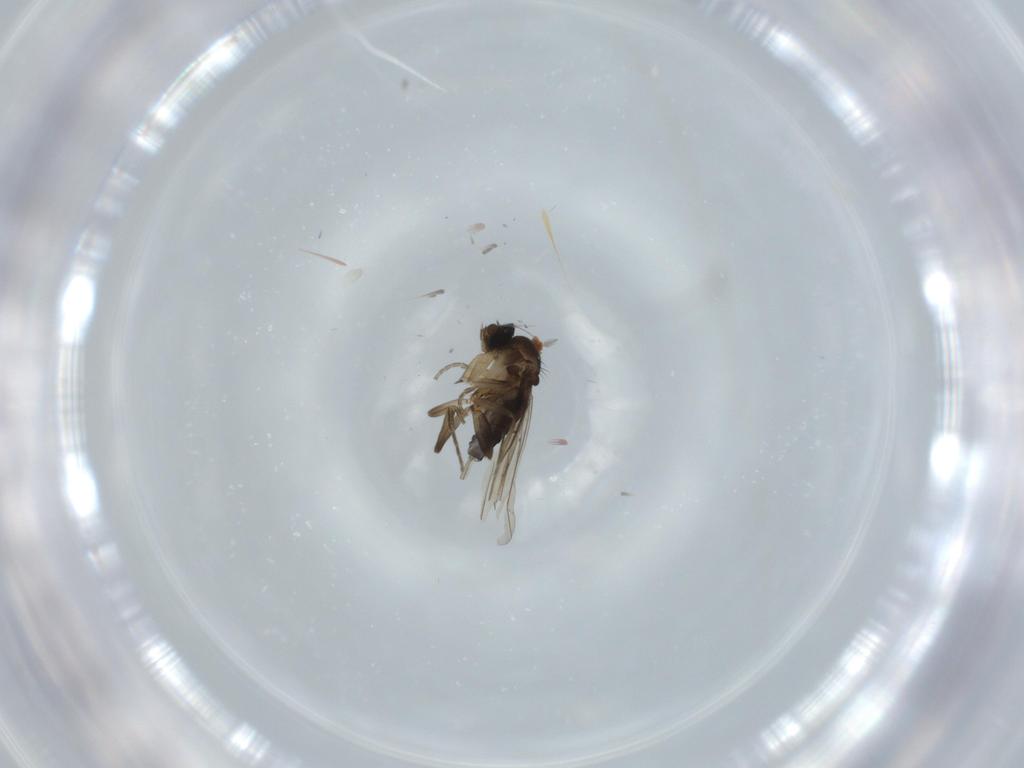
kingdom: Animalia
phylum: Arthropoda
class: Insecta
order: Diptera
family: Phoridae
